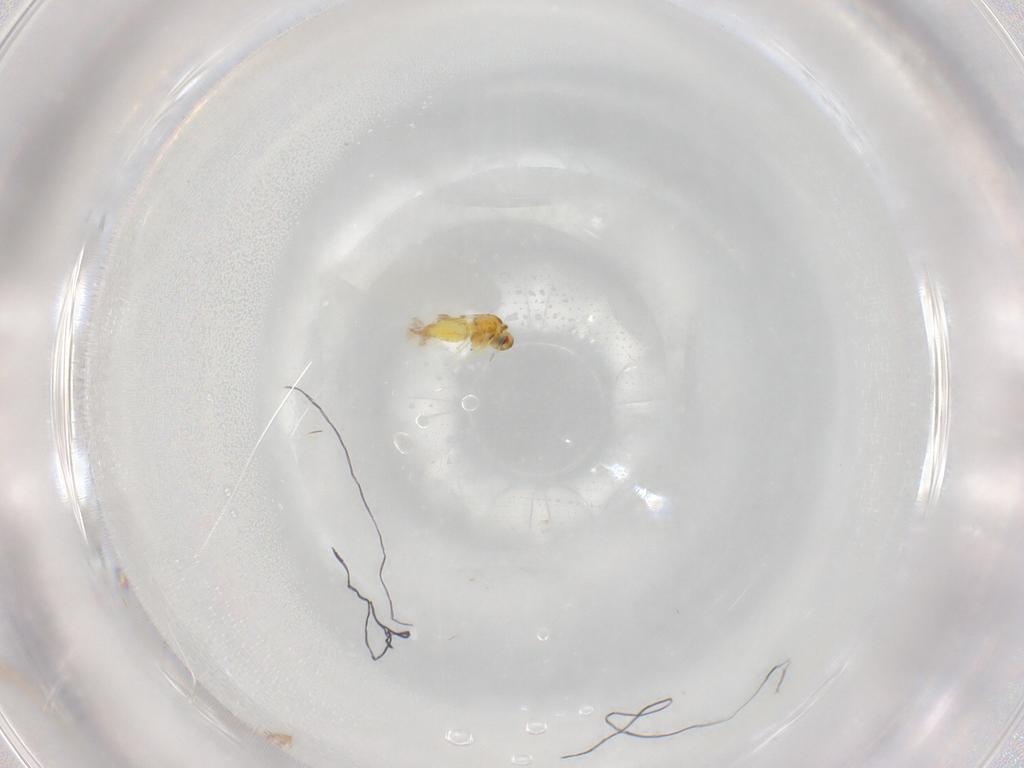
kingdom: Animalia
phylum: Arthropoda
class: Insecta
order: Hemiptera
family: Aleyrodidae
